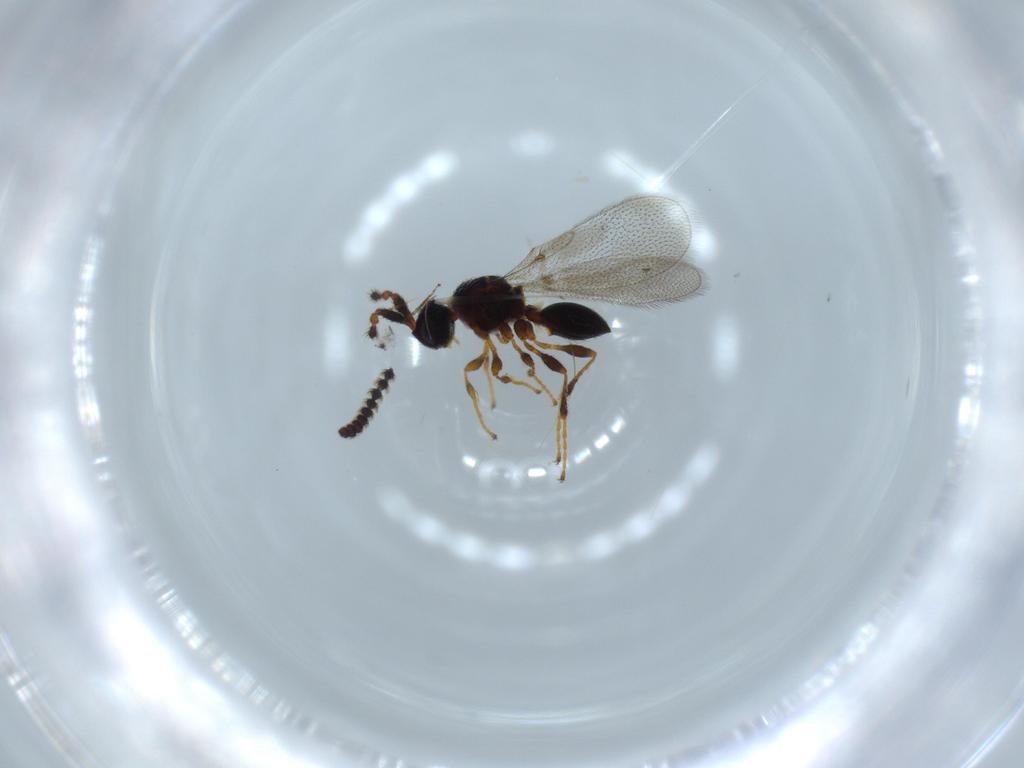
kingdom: Animalia
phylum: Arthropoda
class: Insecta
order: Hymenoptera
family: Diapriidae
